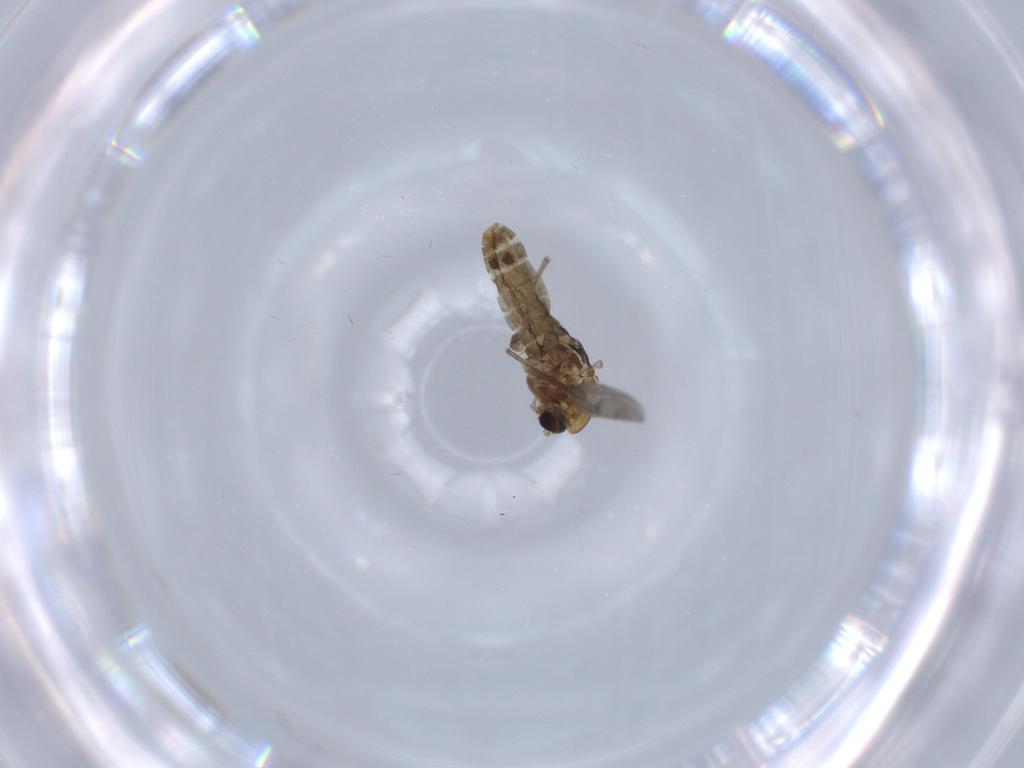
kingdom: Animalia
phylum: Arthropoda
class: Insecta
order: Diptera
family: Chironomidae
